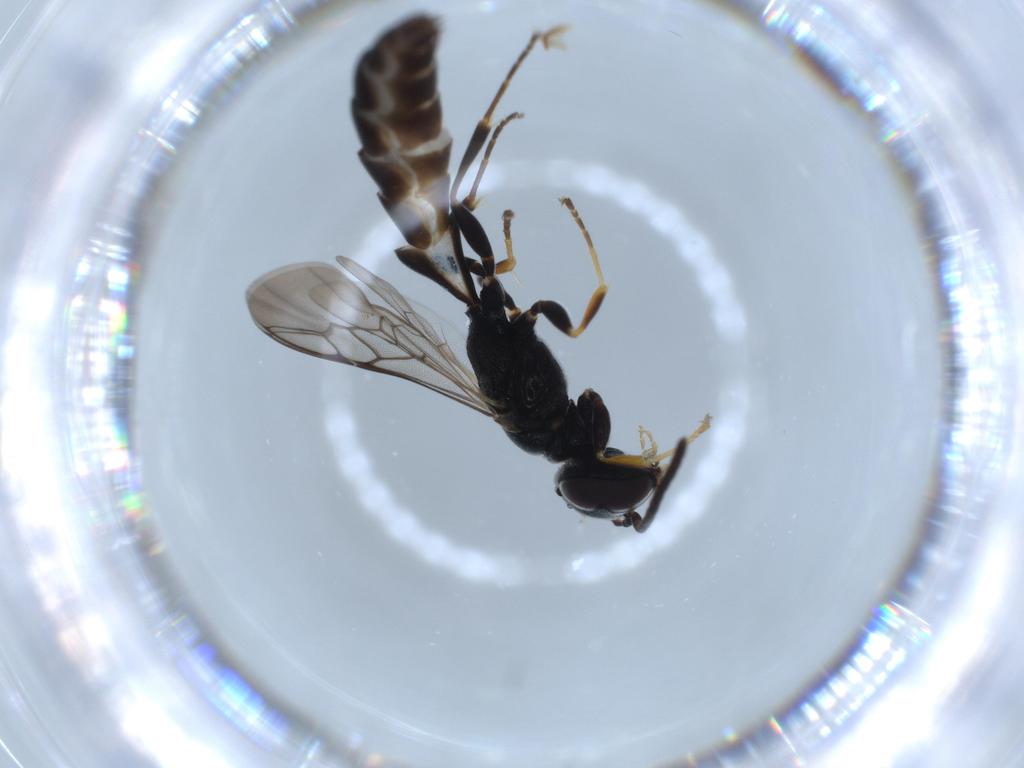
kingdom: Animalia
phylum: Arthropoda
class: Insecta
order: Hymenoptera
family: Crabronidae
